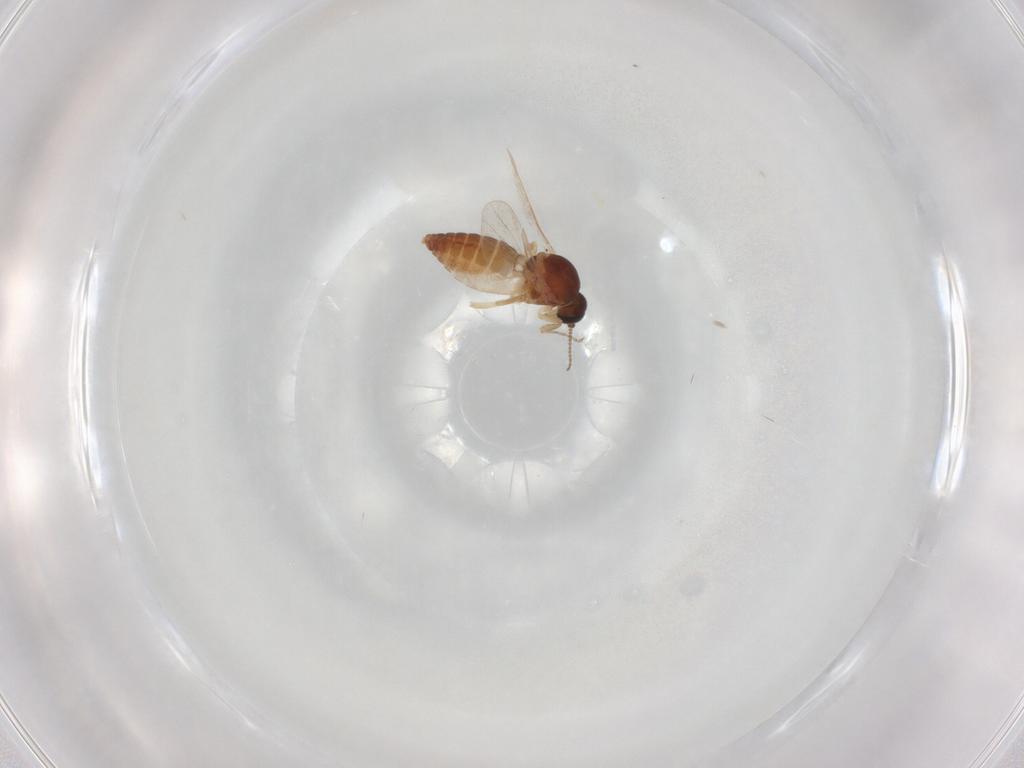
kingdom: Animalia
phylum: Arthropoda
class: Insecta
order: Diptera
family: Ceratopogonidae
